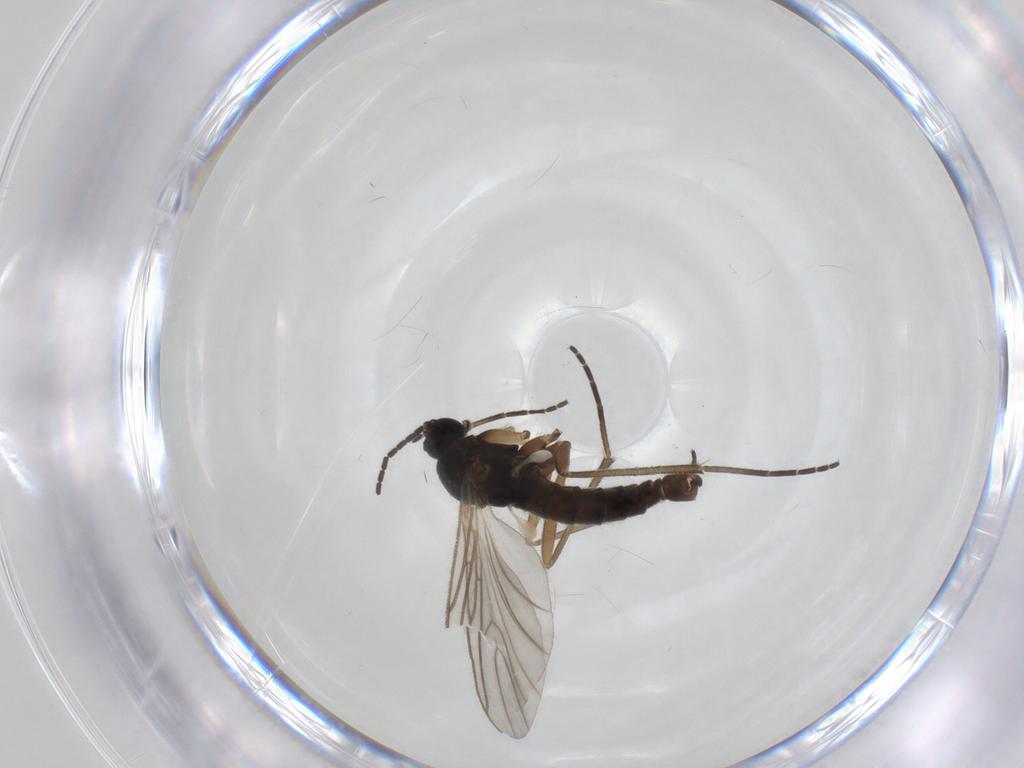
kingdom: Animalia
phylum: Arthropoda
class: Insecta
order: Diptera
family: Sciaridae
